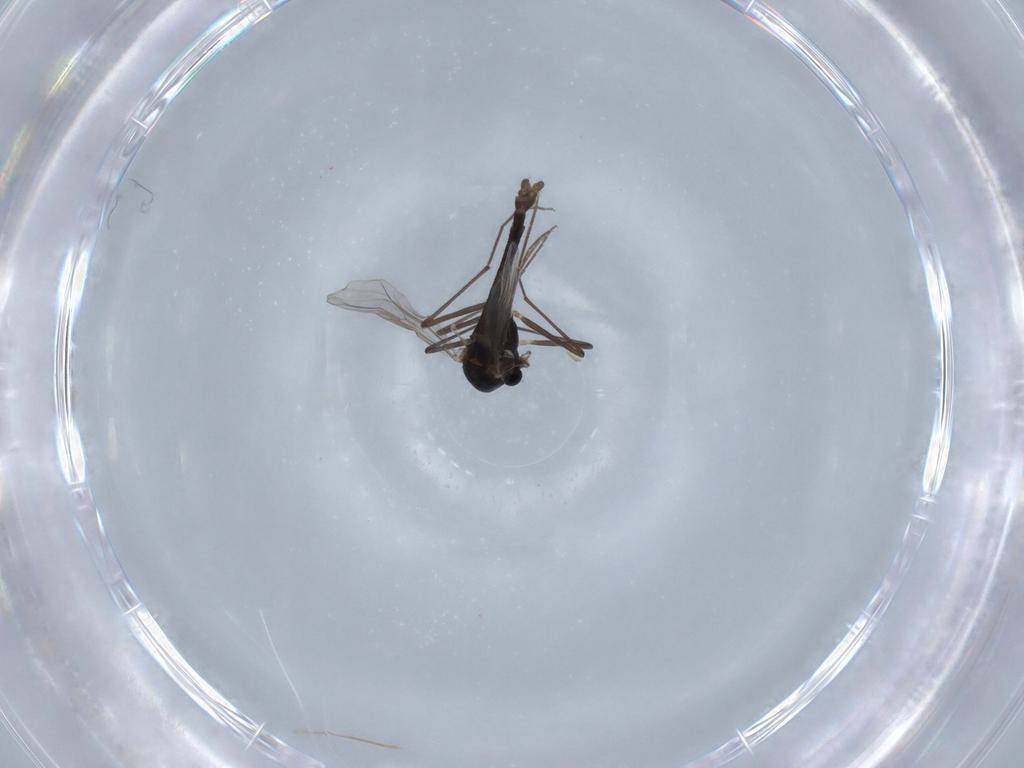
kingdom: Animalia
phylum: Arthropoda
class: Insecta
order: Diptera
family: Chironomidae
